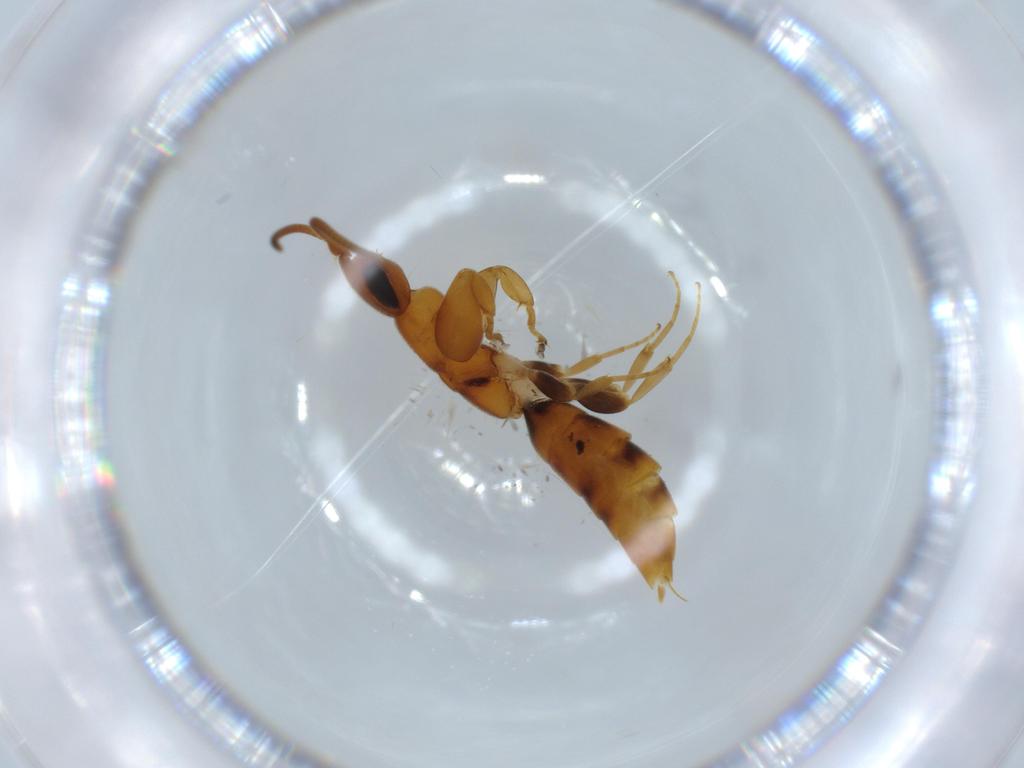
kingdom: Animalia
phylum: Arthropoda
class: Insecta
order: Hymenoptera
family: Sclerogibbidae
